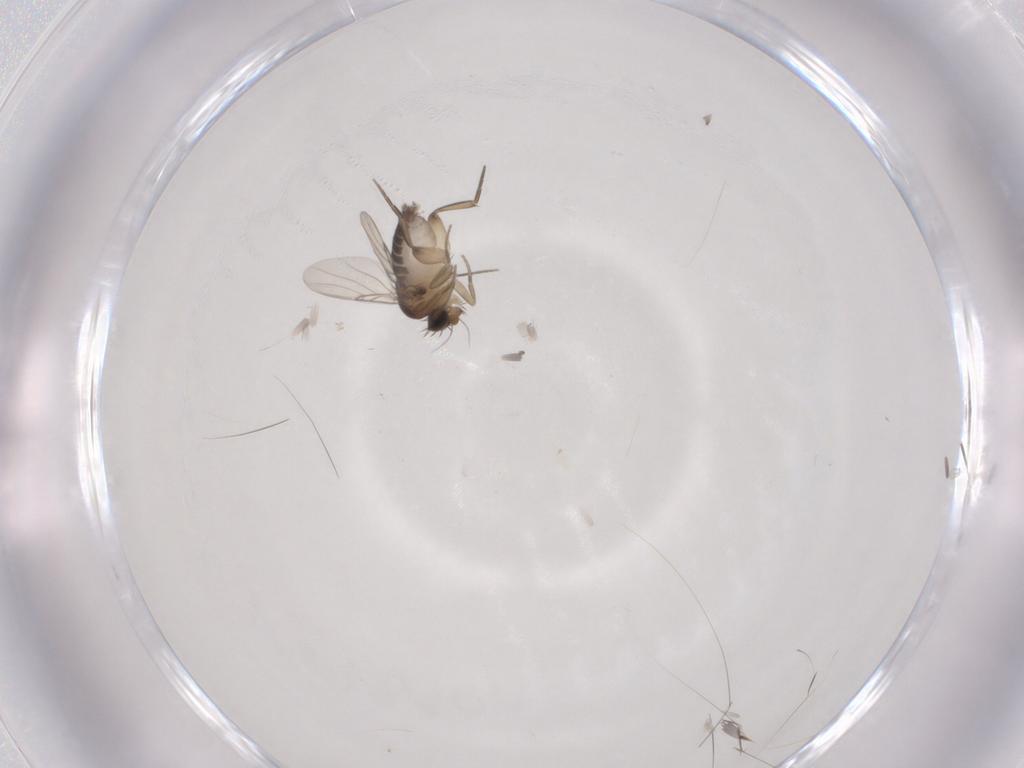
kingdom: Animalia
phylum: Arthropoda
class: Insecta
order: Diptera
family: Phoridae
